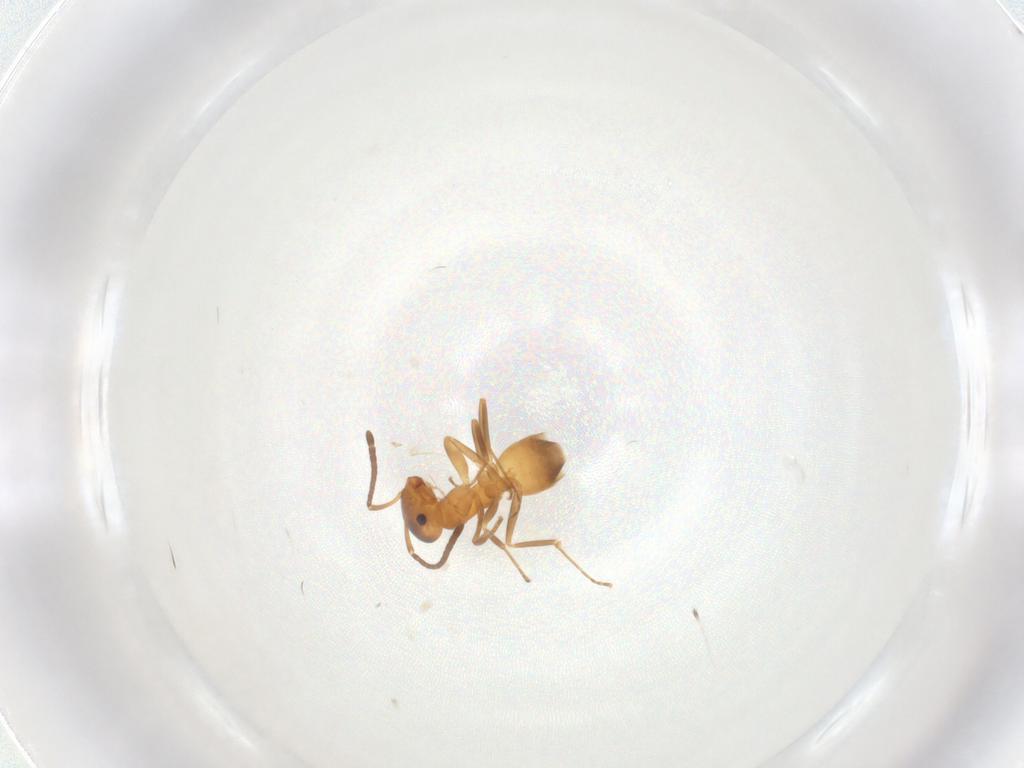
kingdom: Animalia
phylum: Arthropoda
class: Insecta
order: Hymenoptera
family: Formicidae
